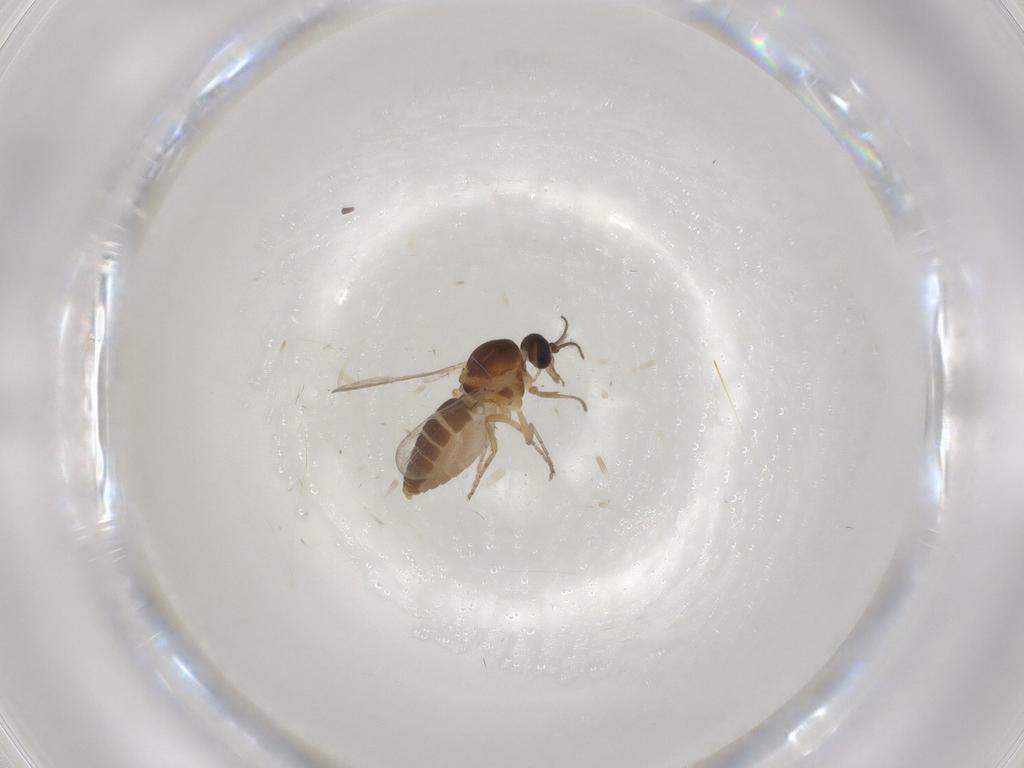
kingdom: Animalia
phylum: Arthropoda
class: Insecta
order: Diptera
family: Ceratopogonidae
